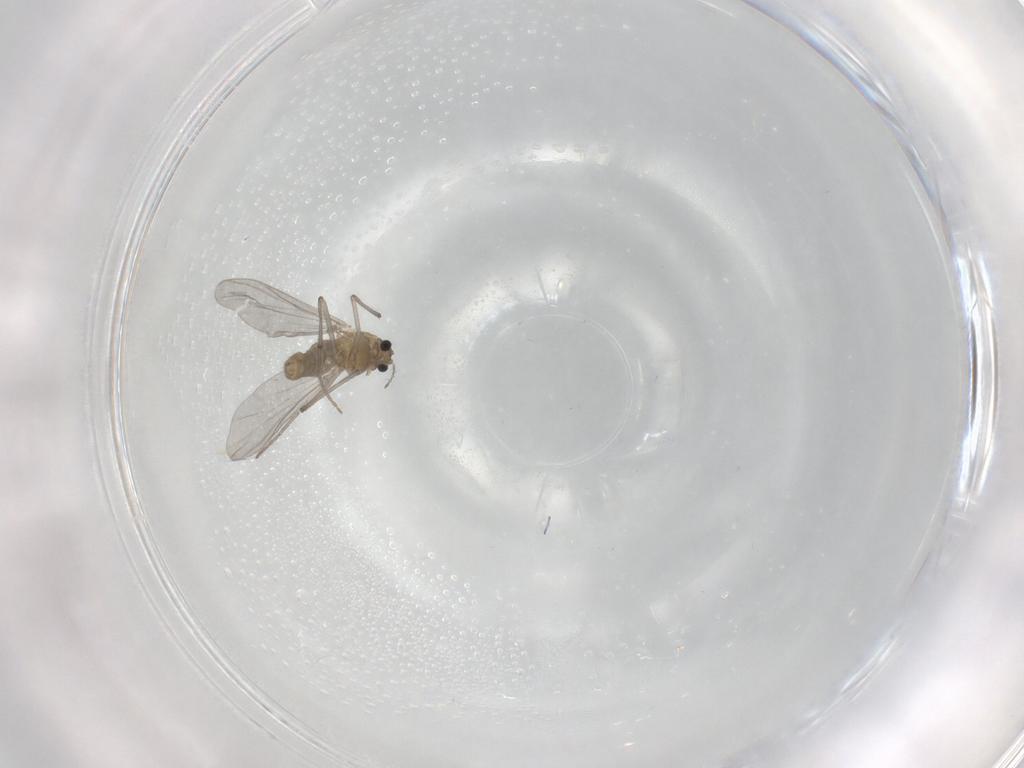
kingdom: Animalia
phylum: Arthropoda
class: Insecta
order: Diptera
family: Chironomidae
